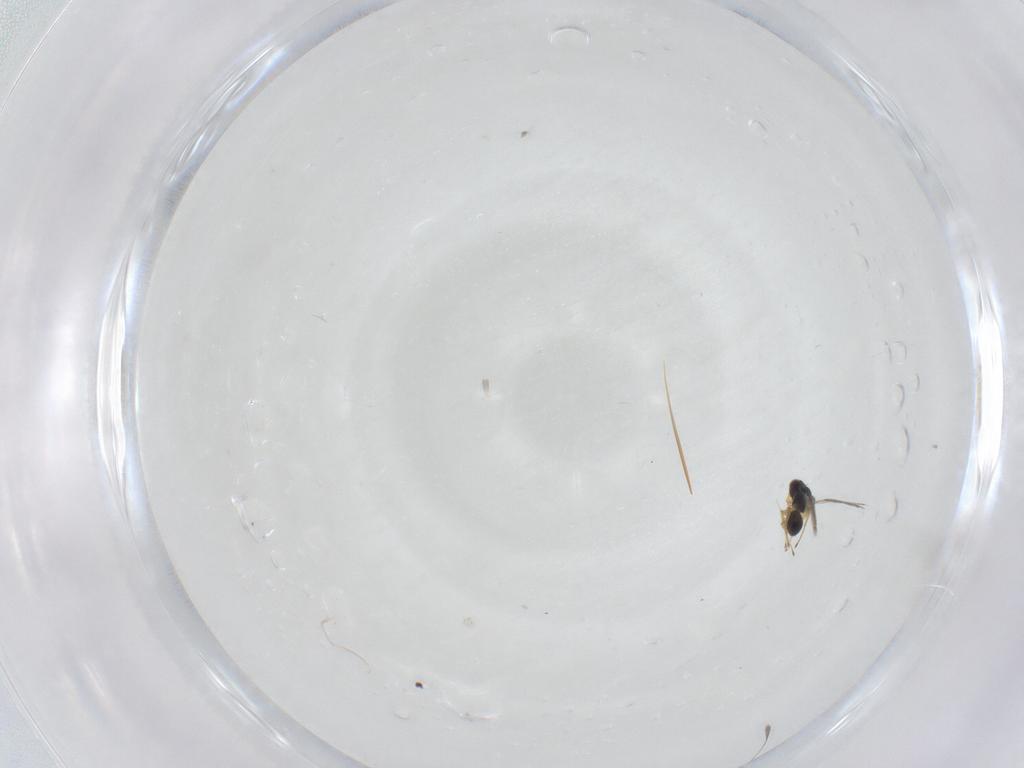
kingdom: Animalia
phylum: Arthropoda
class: Insecta
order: Hymenoptera
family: Mymaridae
